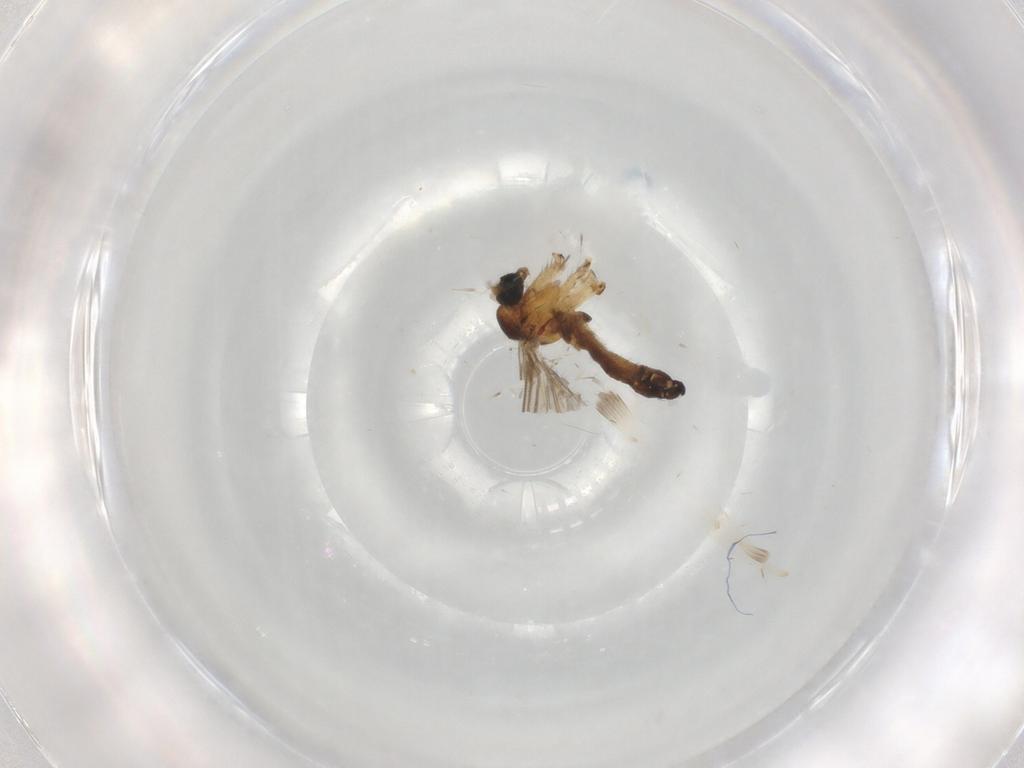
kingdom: Animalia
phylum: Arthropoda
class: Insecta
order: Diptera
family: Sciaridae
